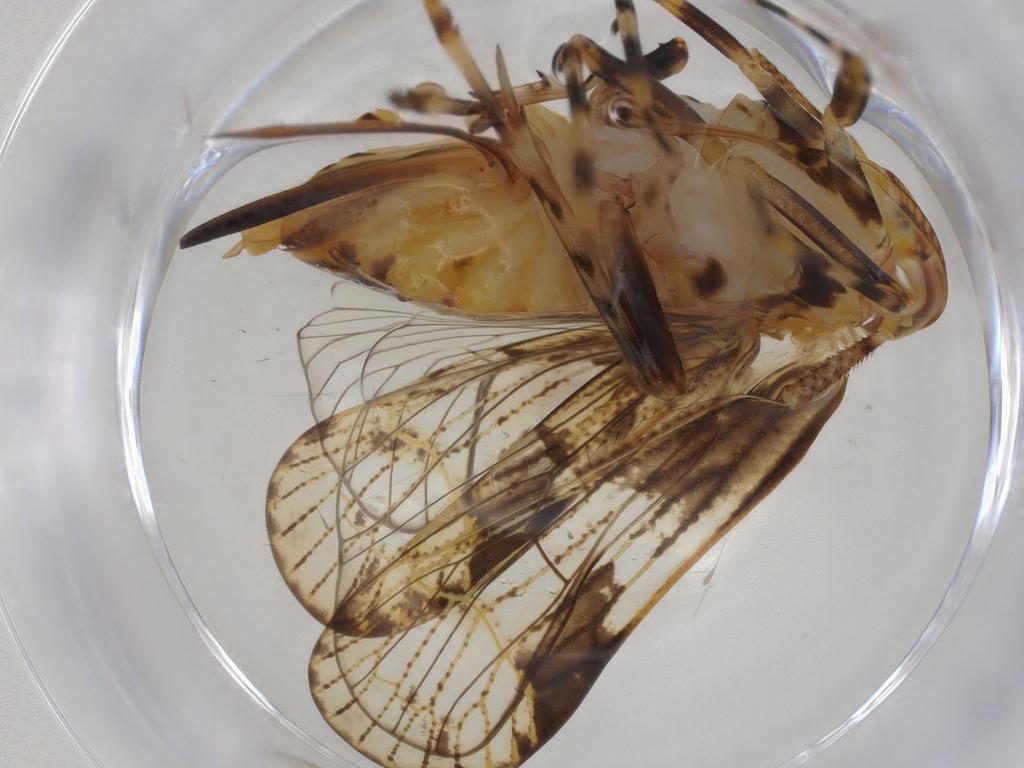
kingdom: Animalia
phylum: Arthropoda
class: Insecta
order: Hemiptera
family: Delphacidae
